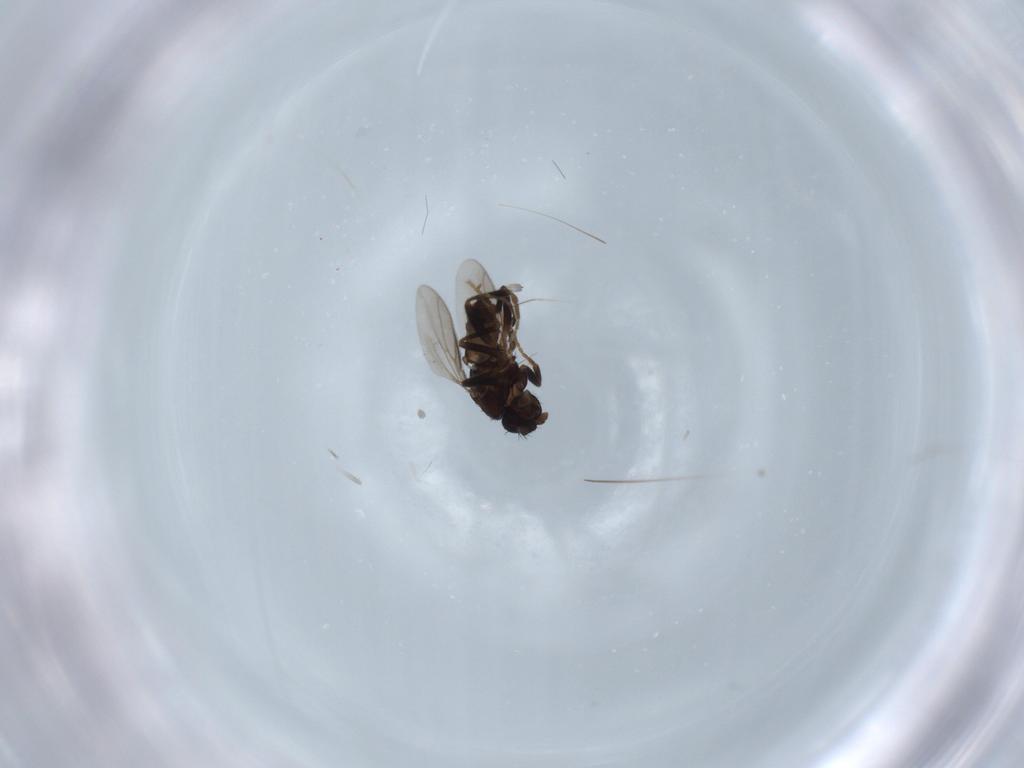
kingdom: Animalia
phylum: Arthropoda
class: Insecta
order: Diptera
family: Sphaeroceridae
